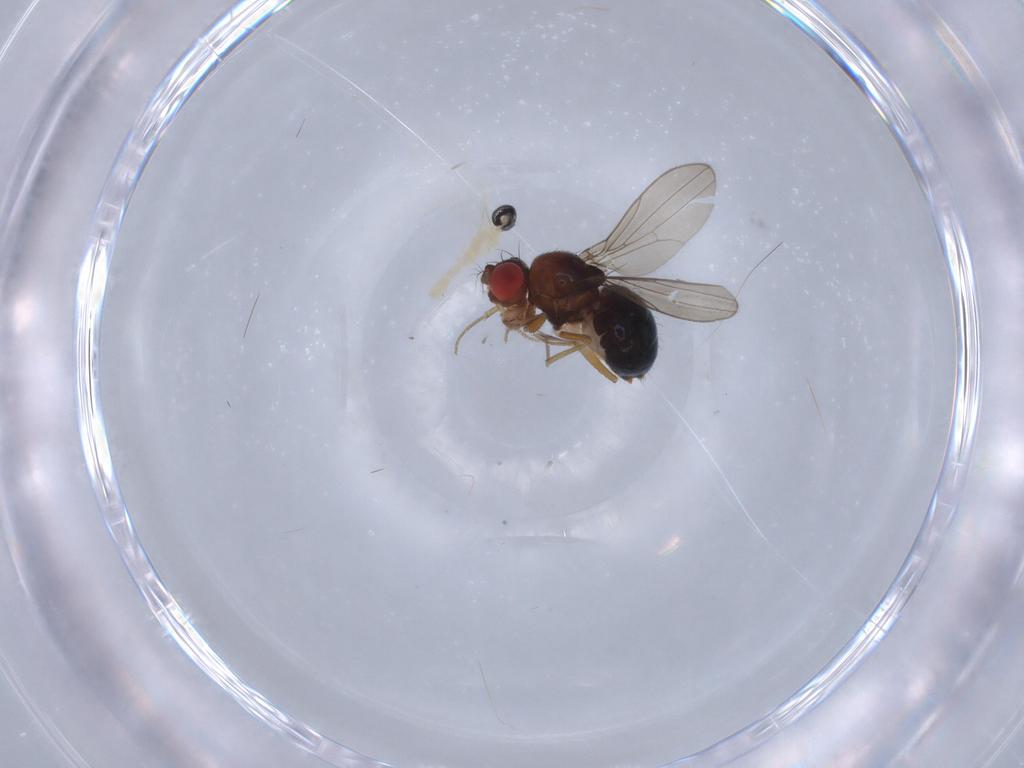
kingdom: Animalia
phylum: Arthropoda
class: Insecta
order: Diptera
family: Drosophilidae
